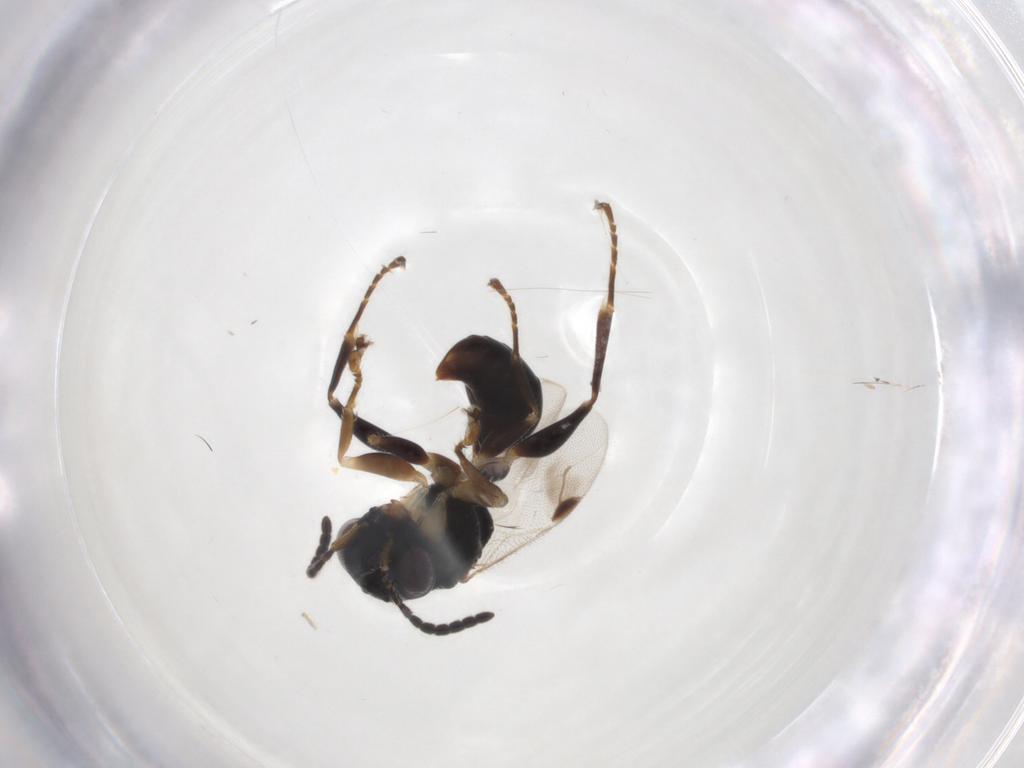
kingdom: Animalia
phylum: Arthropoda
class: Insecta
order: Hymenoptera
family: Dryinidae
